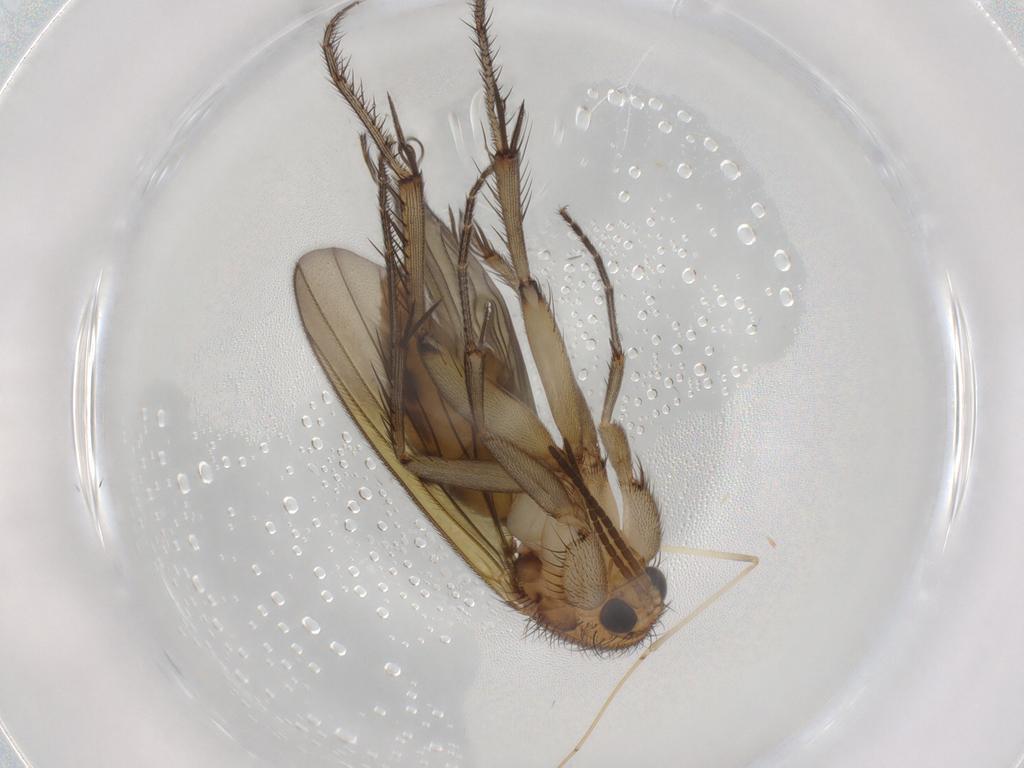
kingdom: Animalia
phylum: Arthropoda
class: Insecta
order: Diptera
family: Mycetophilidae
